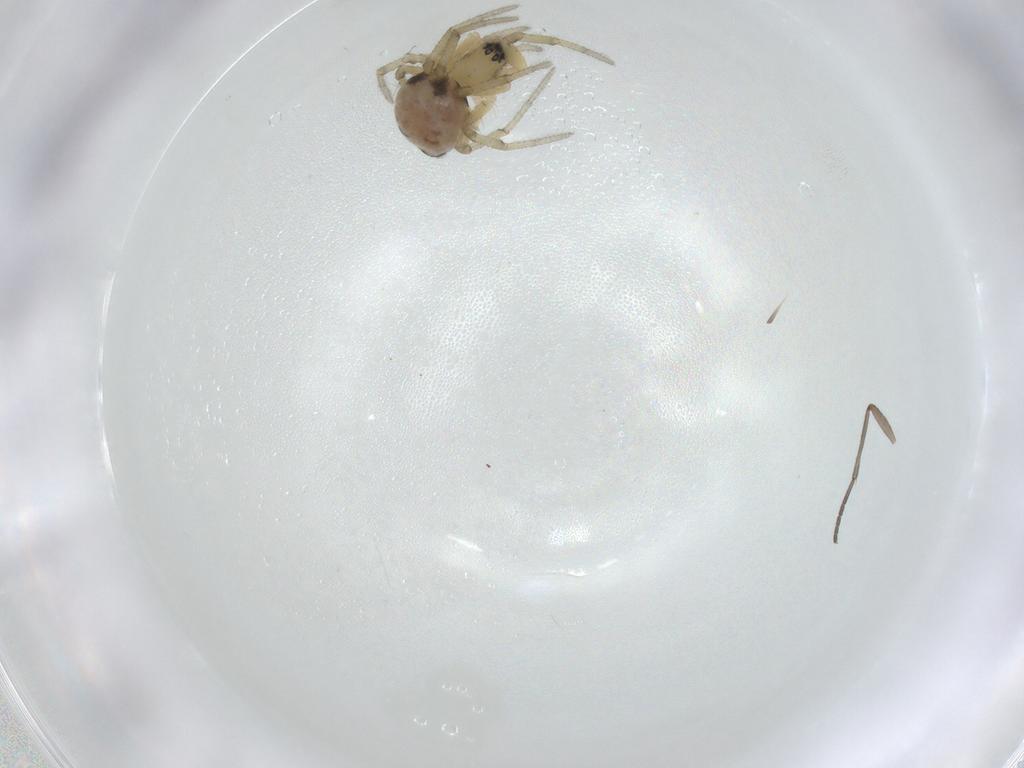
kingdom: Animalia
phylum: Arthropoda
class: Arachnida
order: Araneae
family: Linyphiidae
